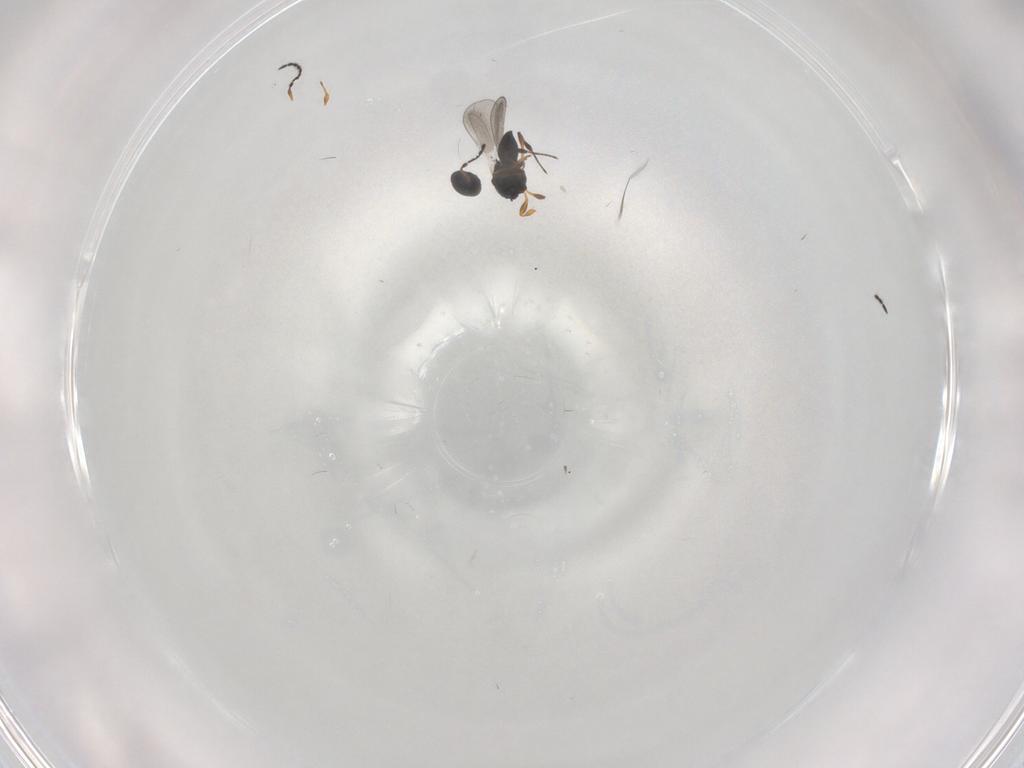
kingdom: Animalia
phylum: Arthropoda
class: Insecta
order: Hymenoptera
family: Platygastridae
